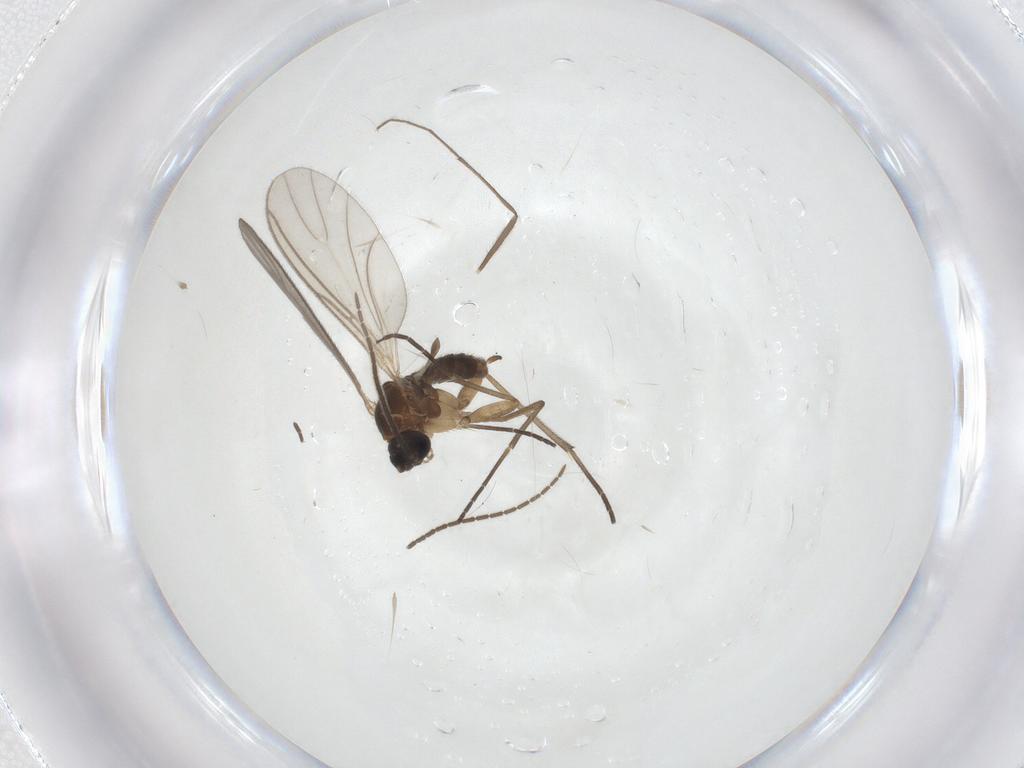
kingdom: Animalia
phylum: Arthropoda
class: Insecta
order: Diptera
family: Sciaridae
